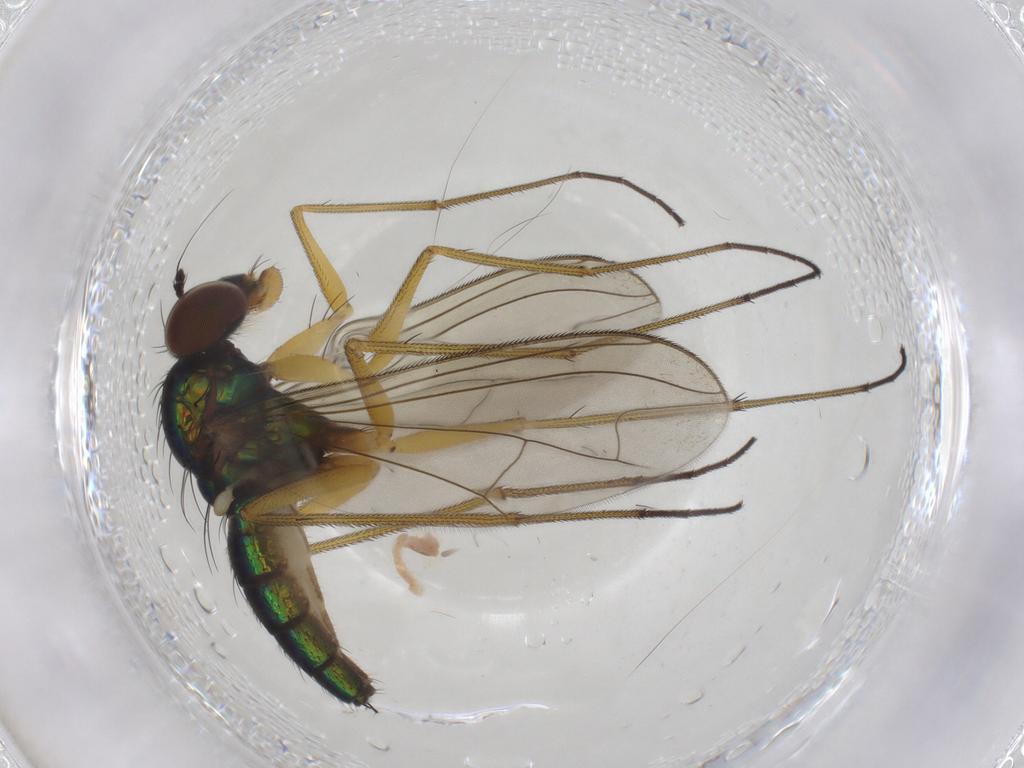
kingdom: Animalia
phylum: Arthropoda
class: Insecta
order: Diptera
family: Dolichopodidae
